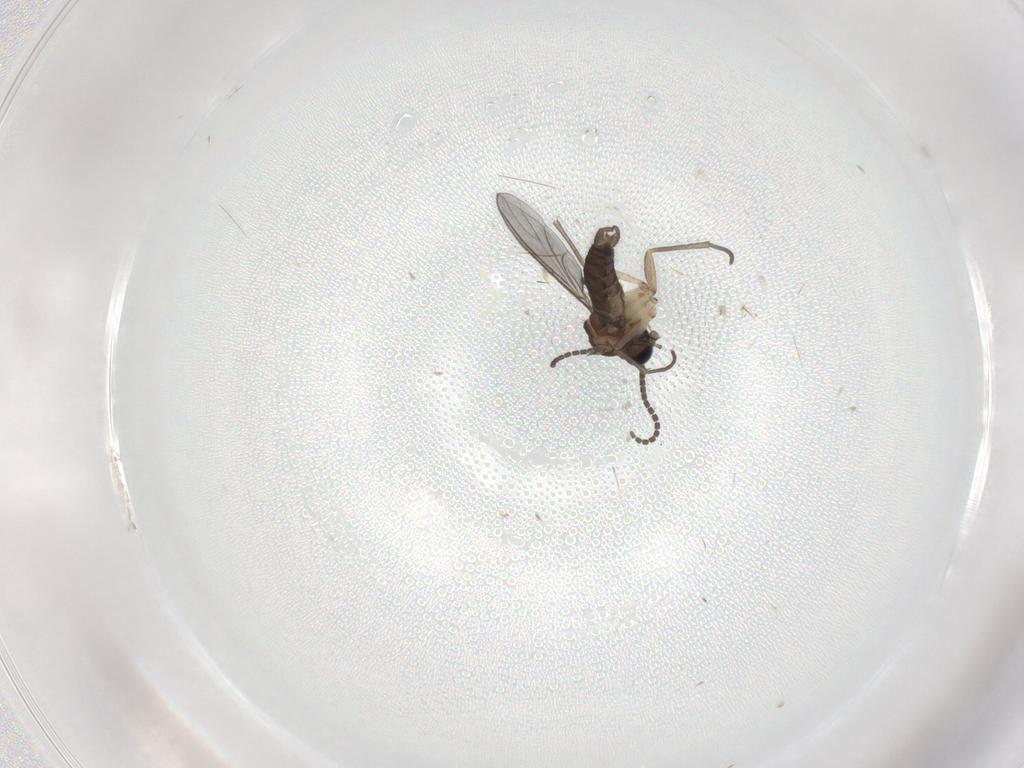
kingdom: Animalia
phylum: Arthropoda
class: Insecta
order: Diptera
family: Sciaridae
